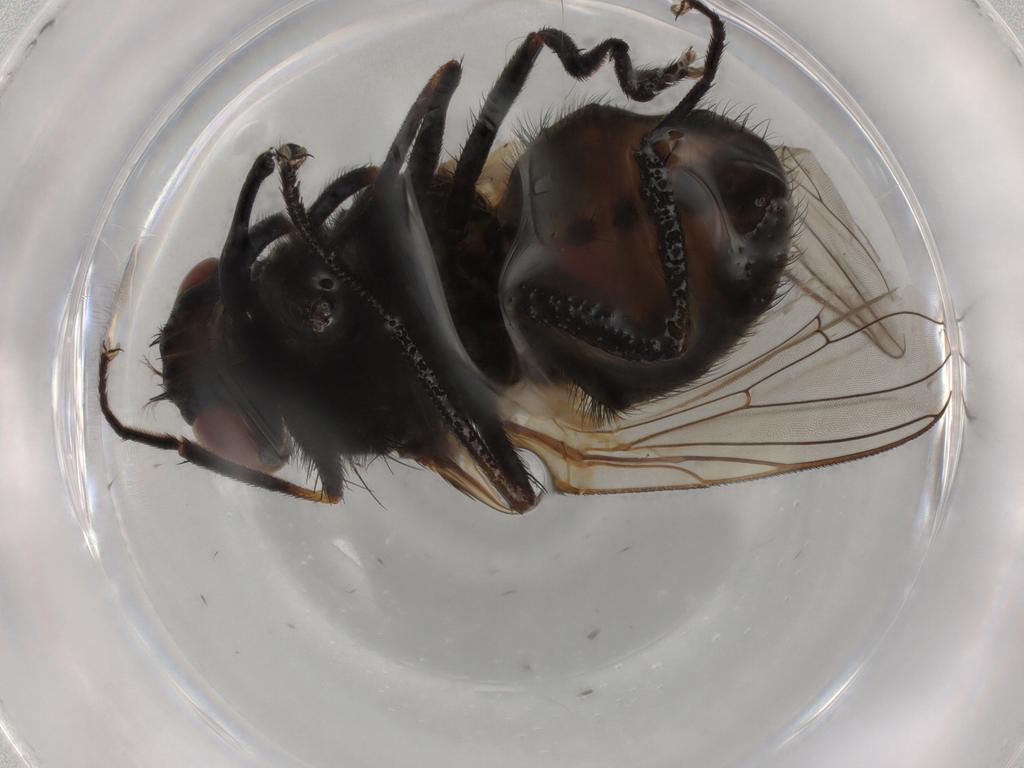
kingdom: Animalia
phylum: Arthropoda
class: Insecta
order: Diptera
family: Muscidae
